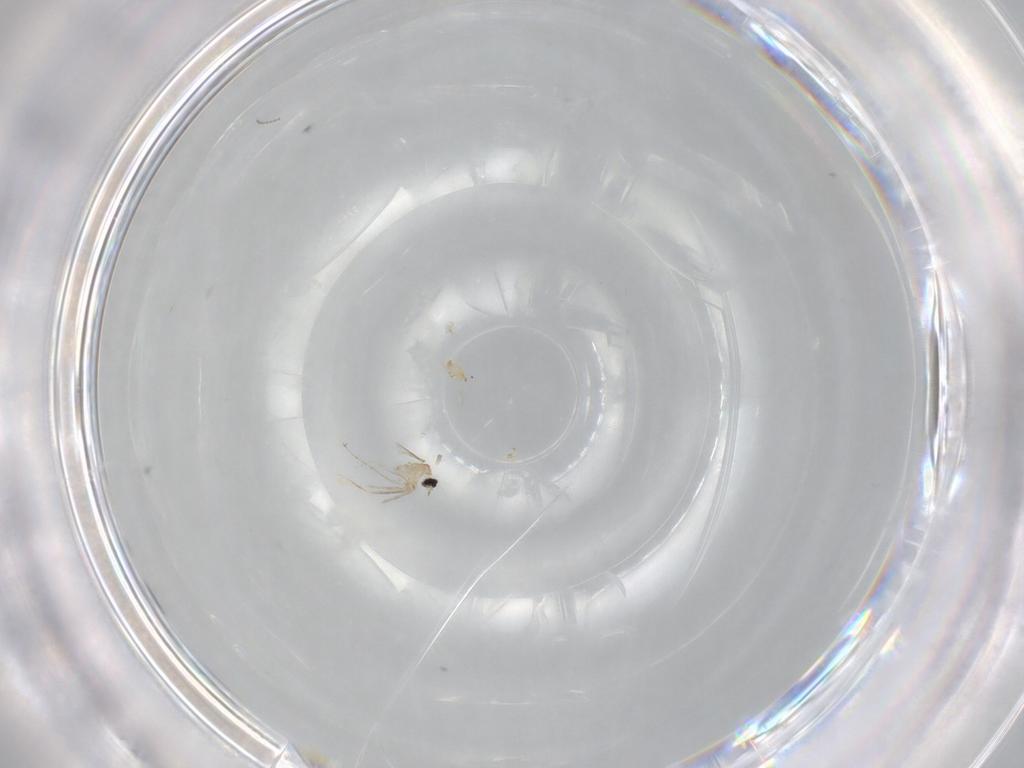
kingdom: Animalia
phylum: Arthropoda
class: Insecta
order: Diptera
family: Cecidomyiidae
